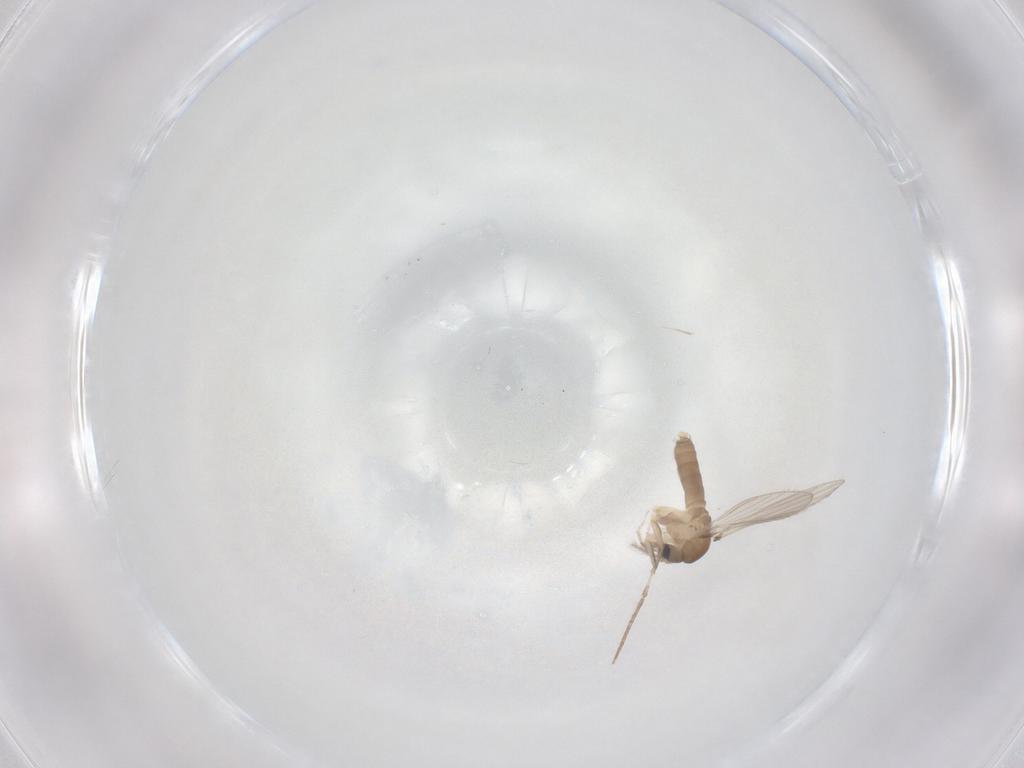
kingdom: Animalia
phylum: Arthropoda
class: Insecta
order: Diptera
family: Psychodidae
